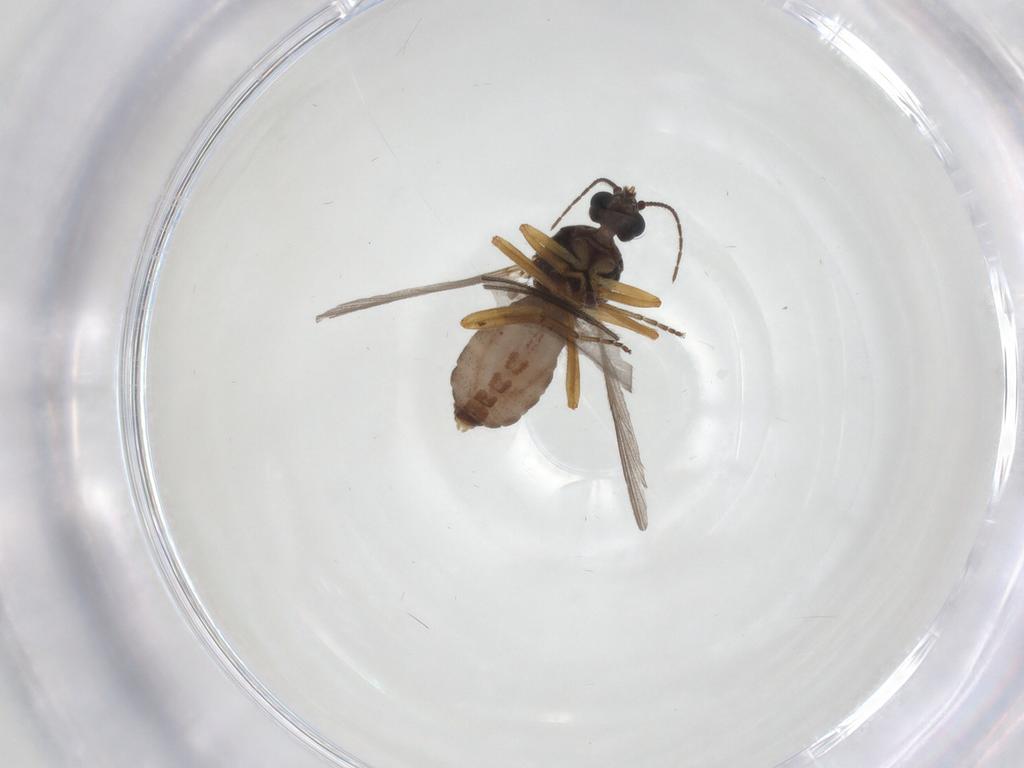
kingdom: Animalia
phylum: Arthropoda
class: Insecta
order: Diptera
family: Ceratopogonidae
